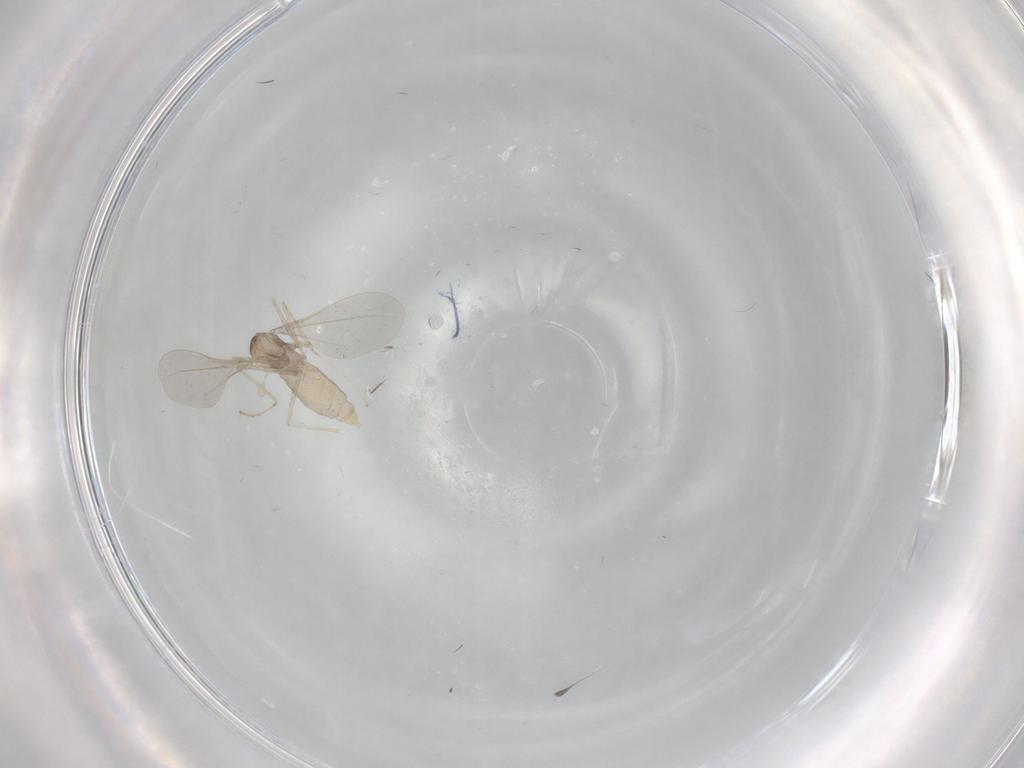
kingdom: Animalia
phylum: Arthropoda
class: Insecta
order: Diptera
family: Cecidomyiidae
